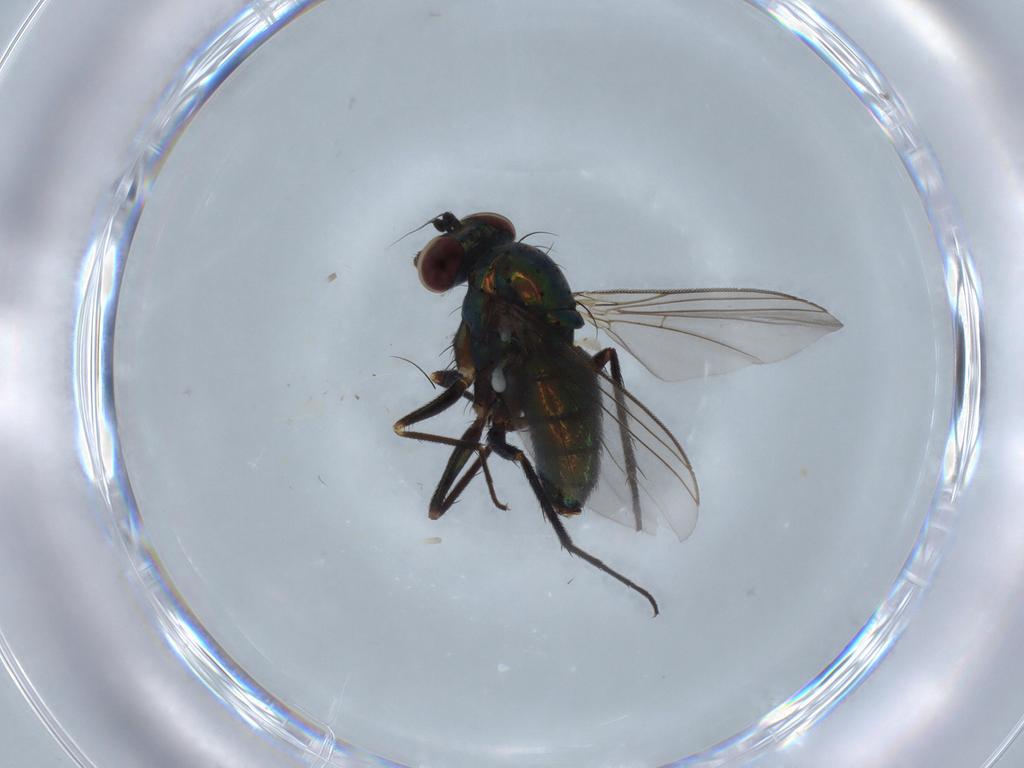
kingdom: Animalia
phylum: Arthropoda
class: Insecta
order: Diptera
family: Dolichopodidae
